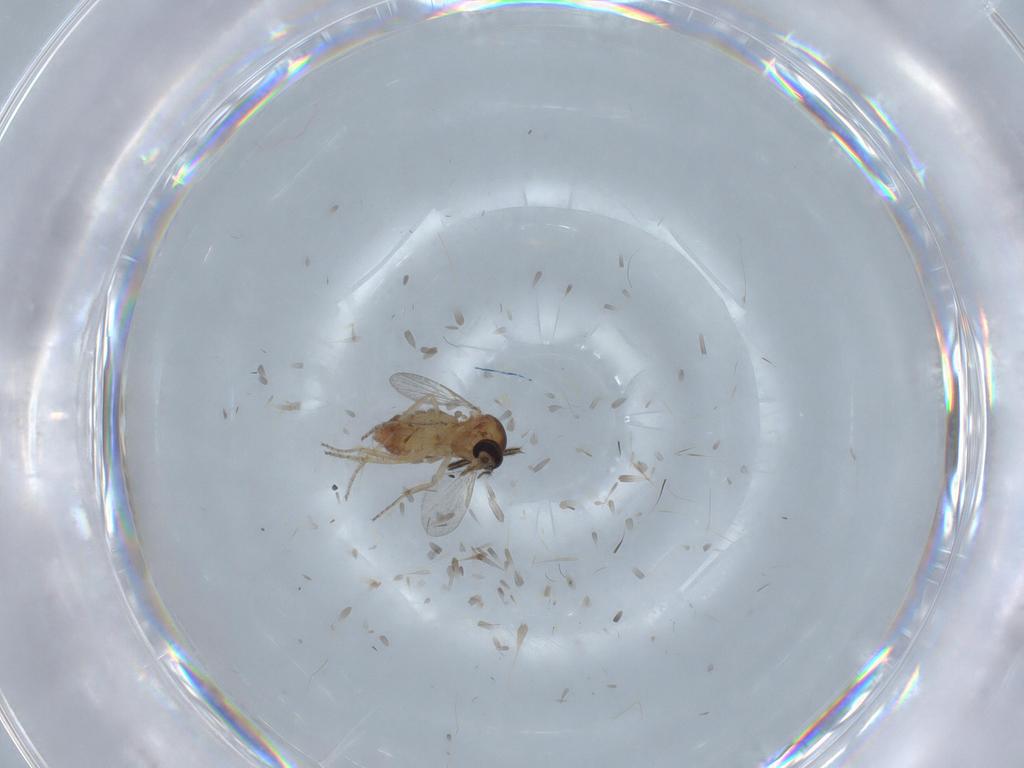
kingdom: Animalia
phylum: Arthropoda
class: Insecta
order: Diptera
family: Ceratopogonidae
